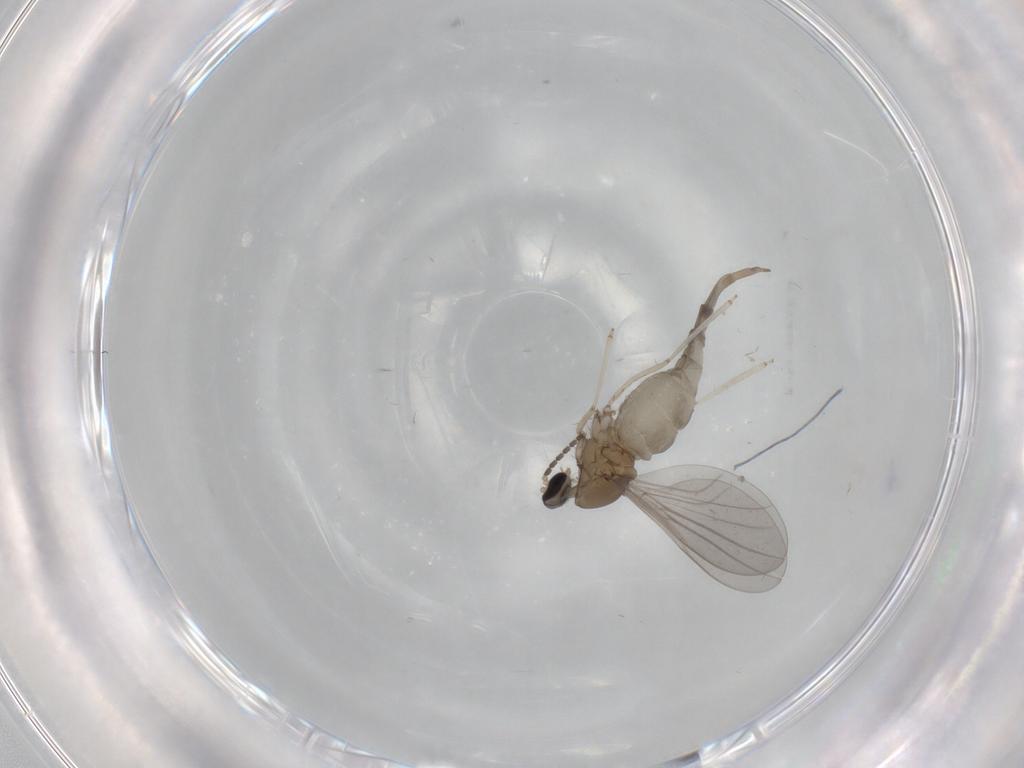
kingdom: Animalia
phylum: Arthropoda
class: Insecta
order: Diptera
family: Cecidomyiidae
